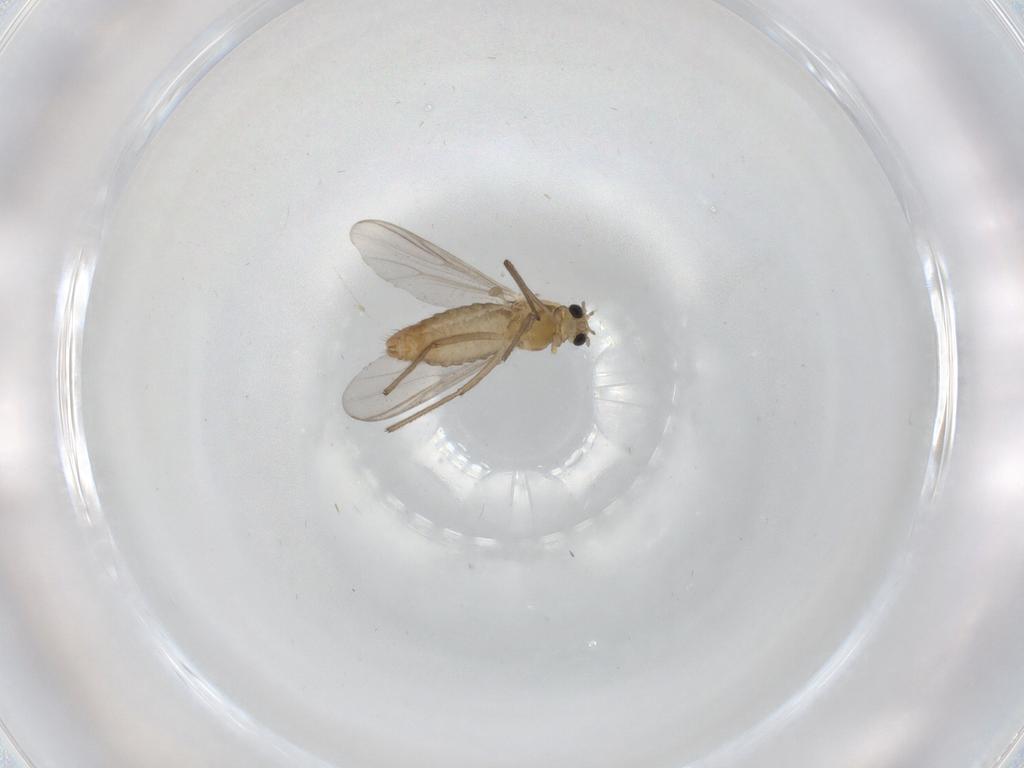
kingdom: Animalia
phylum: Arthropoda
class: Insecta
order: Diptera
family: Chironomidae
